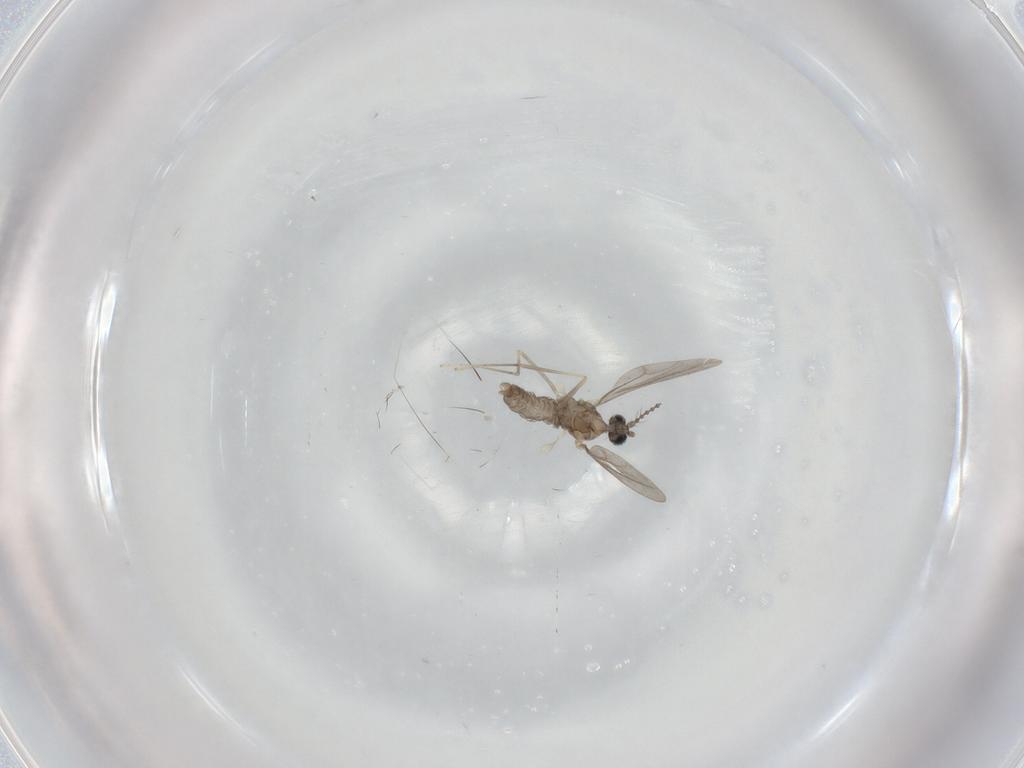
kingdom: Animalia
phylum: Arthropoda
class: Insecta
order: Diptera
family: Cecidomyiidae
